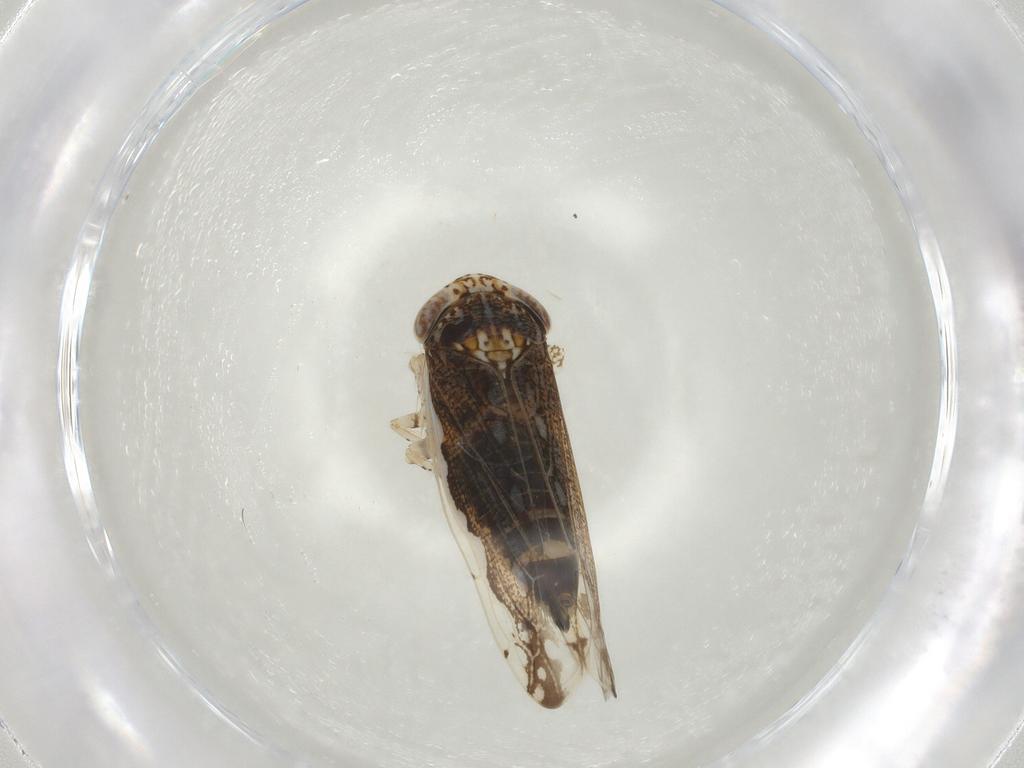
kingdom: Animalia
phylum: Arthropoda
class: Insecta
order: Hemiptera
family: Cicadellidae
